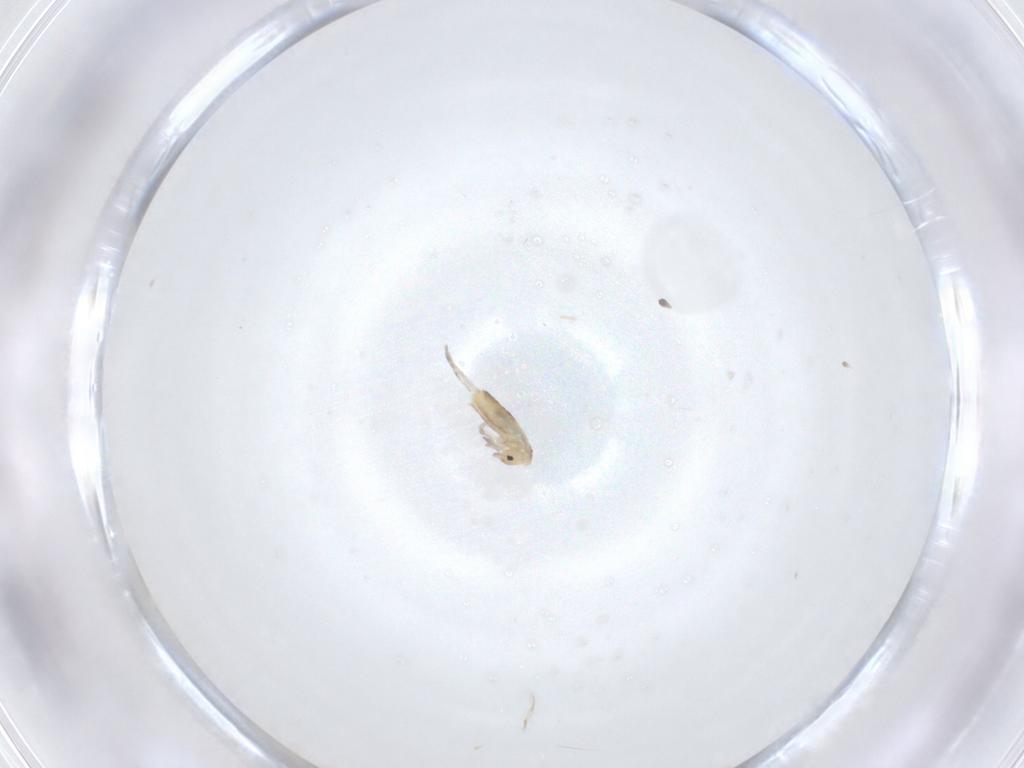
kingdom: Animalia
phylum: Arthropoda
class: Collembola
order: Entomobryomorpha
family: Entomobryidae
